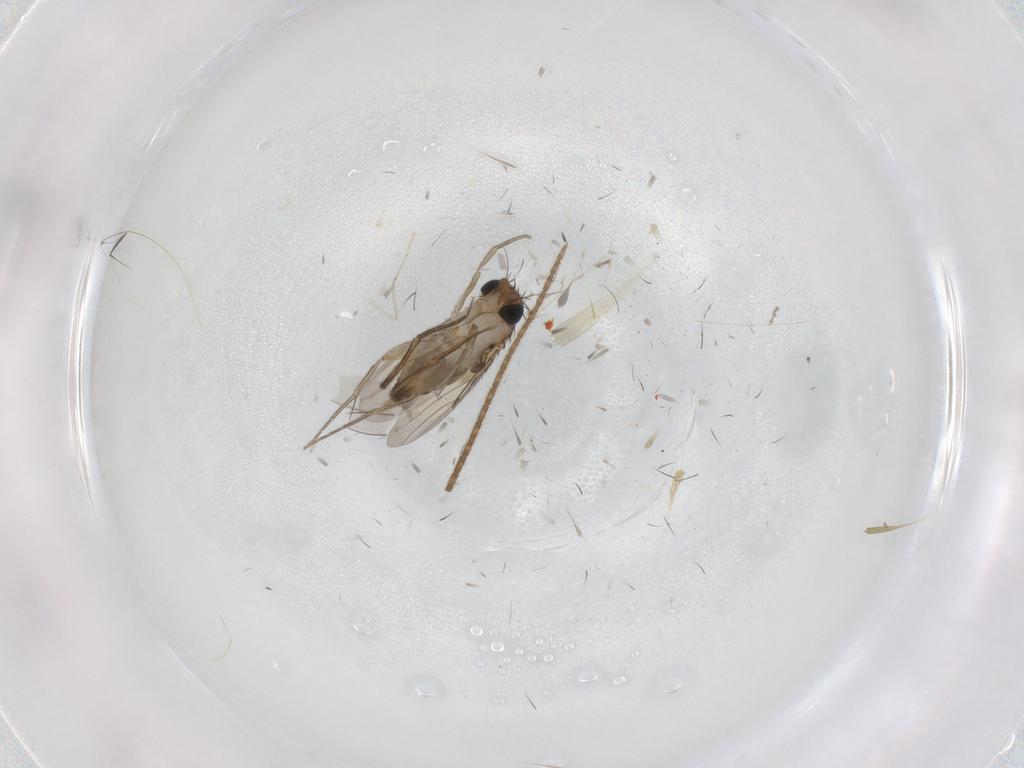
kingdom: Animalia
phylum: Arthropoda
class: Insecta
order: Diptera
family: Phoridae
